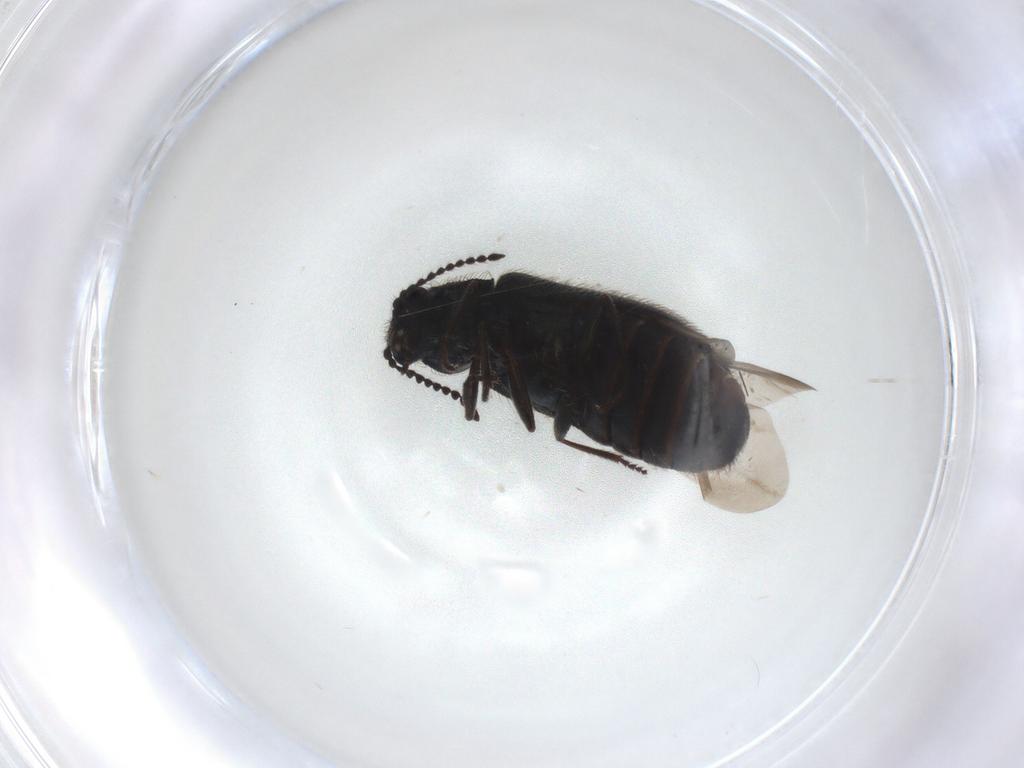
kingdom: Animalia
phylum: Arthropoda
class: Insecta
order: Coleoptera
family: Melyridae
